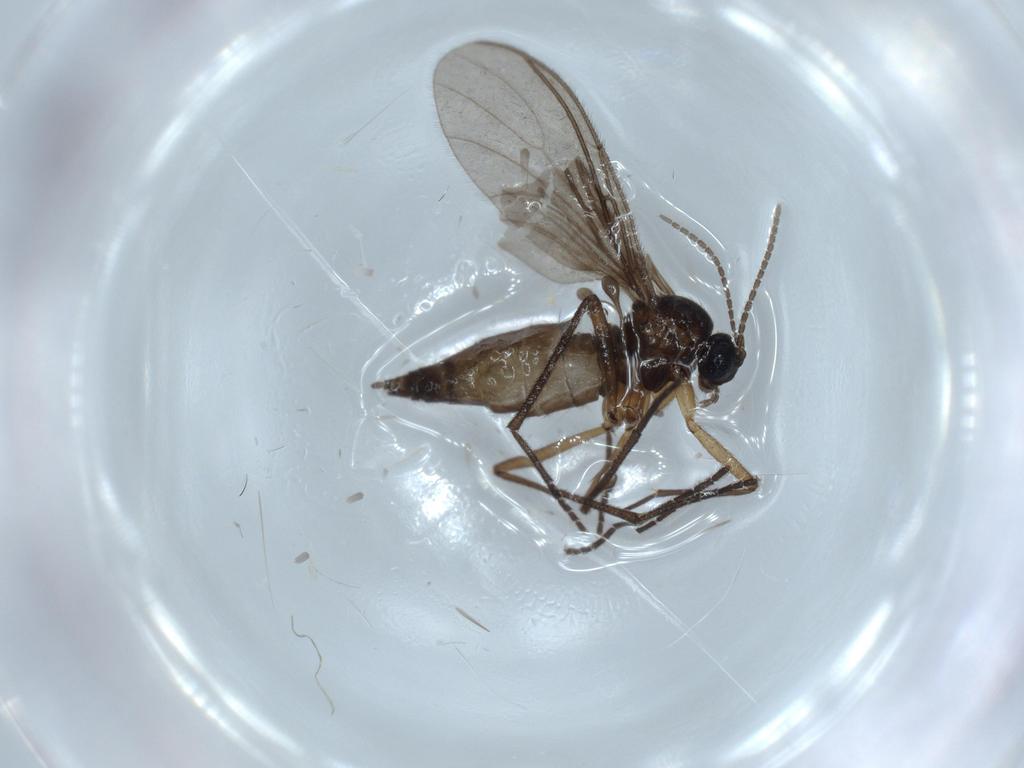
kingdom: Animalia
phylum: Arthropoda
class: Insecta
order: Diptera
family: Sciaridae
